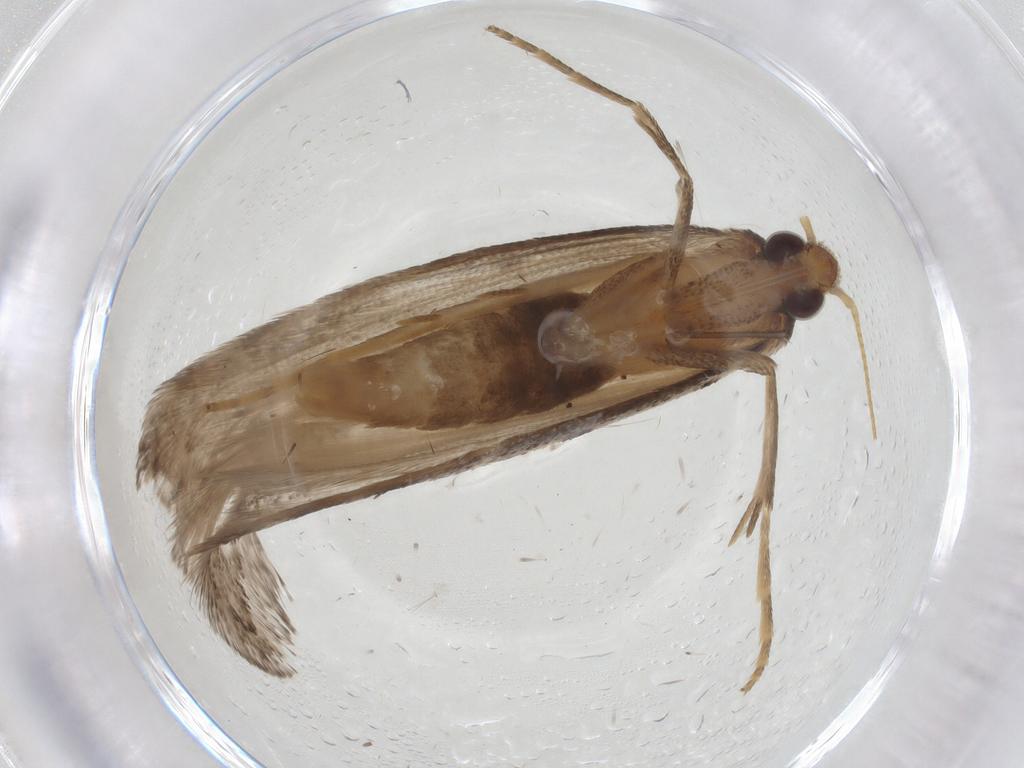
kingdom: Animalia
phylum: Arthropoda
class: Insecta
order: Lepidoptera
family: Carposinidae
